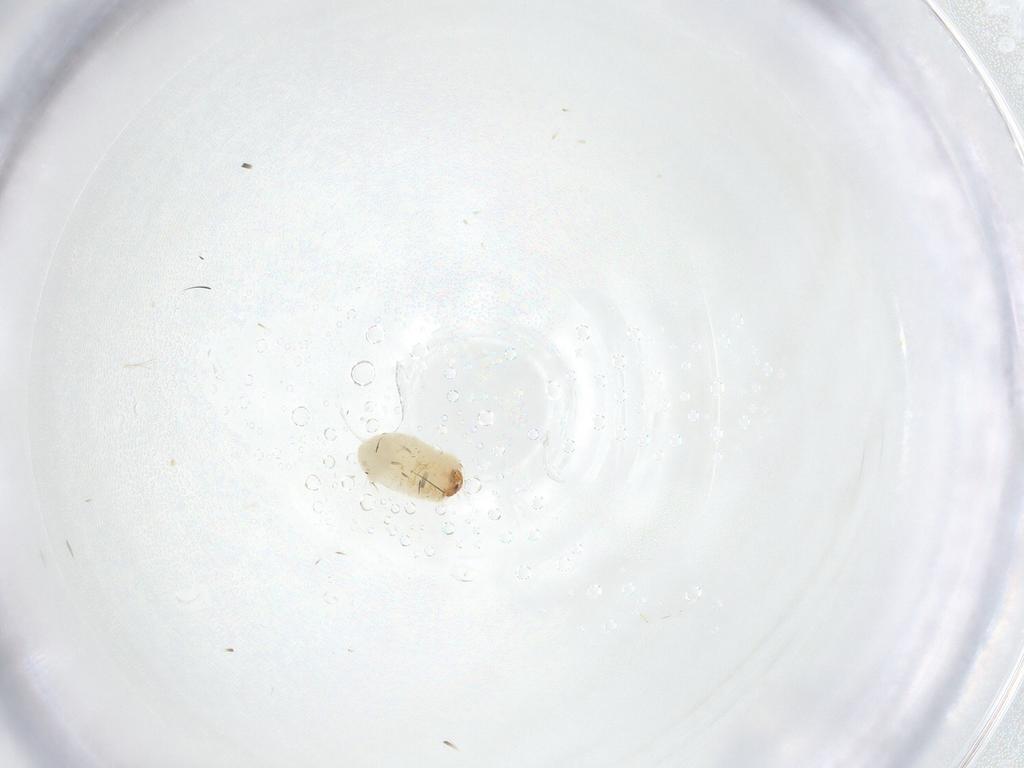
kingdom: Animalia
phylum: Arthropoda
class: Insecta
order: Coleoptera
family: Bostrichidae
